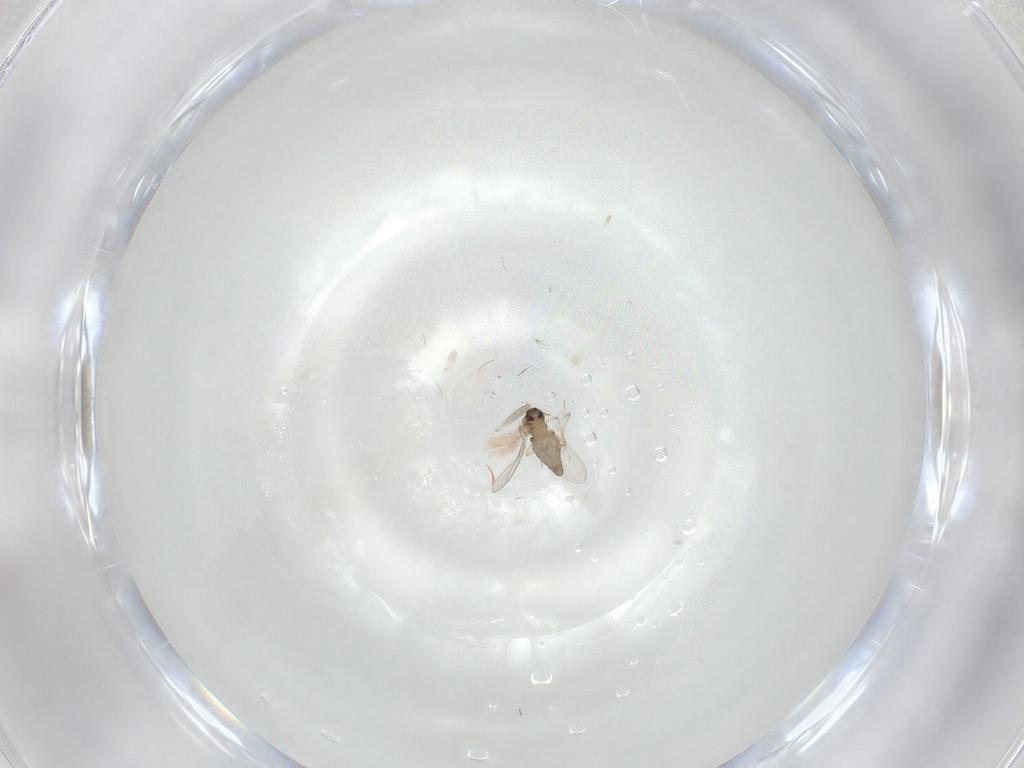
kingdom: Animalia
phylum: Arthropoda
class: Insecta
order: Diptera
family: Ceratopogonidae
